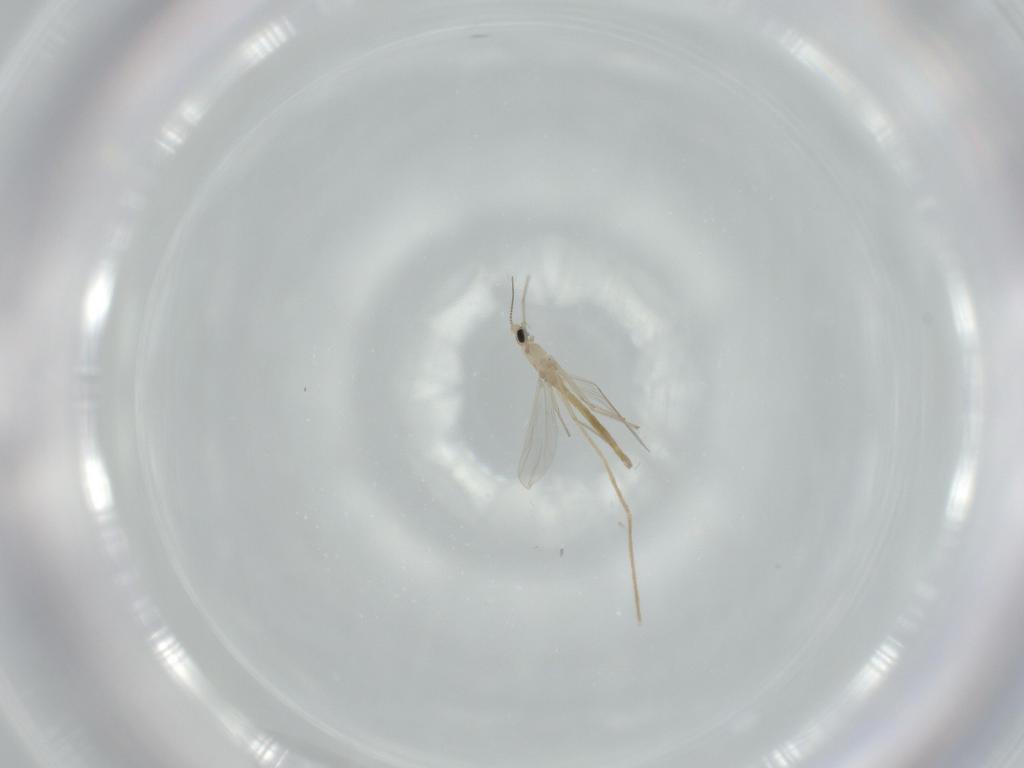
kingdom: Animalia
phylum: Arthropoda
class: Insecta
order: Diptera
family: Chironomidae
